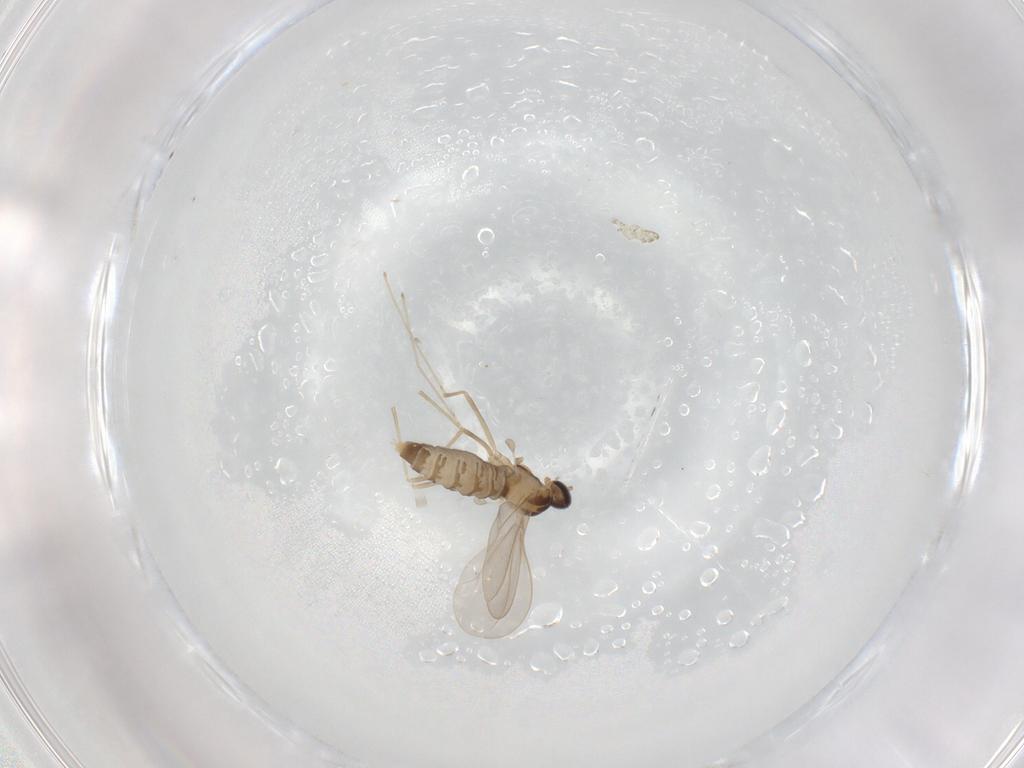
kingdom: Animalia
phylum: Arthropoda
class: Insecta
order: Diptera
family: Cecidomyiidae
